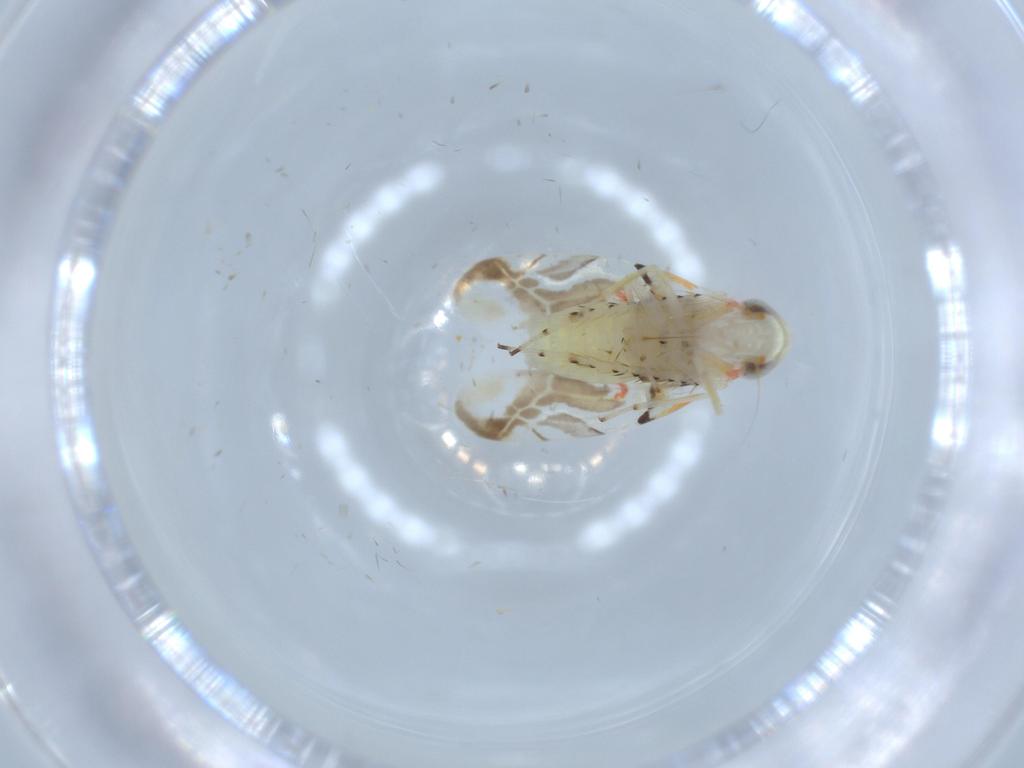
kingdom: Animalia
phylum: Arthropoda
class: Insecta
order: Hemiptera
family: Cicadellidae
